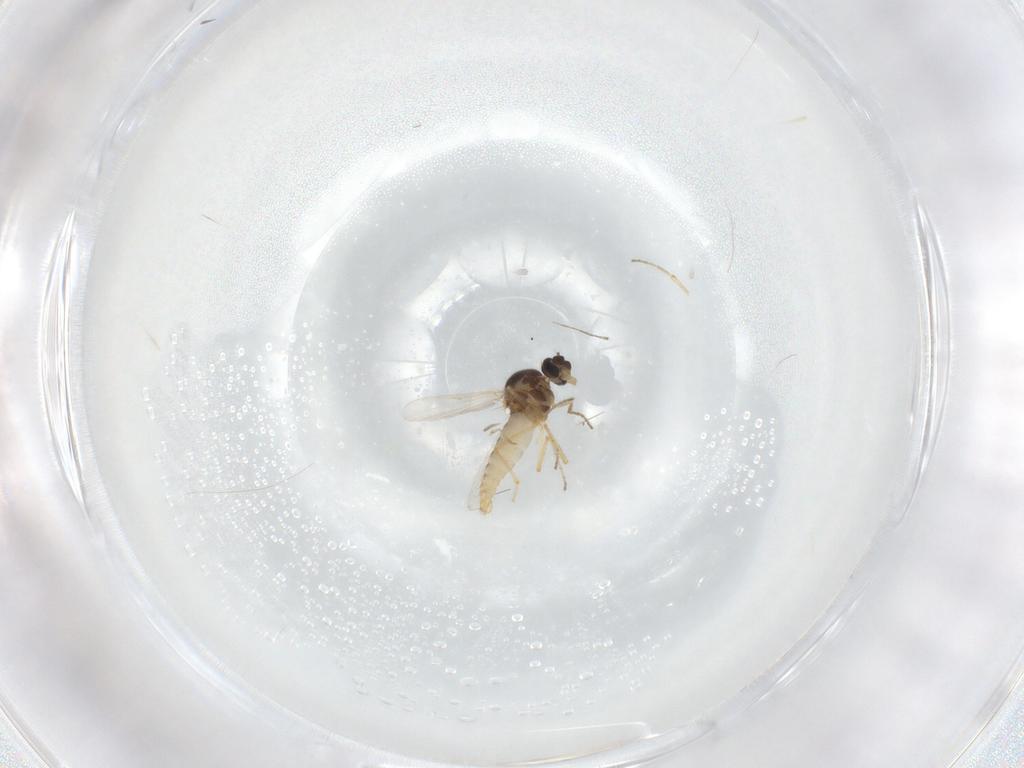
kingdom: Animalia
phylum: Arthropoda
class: Insecta
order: Diptera
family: Ceratopogonidae
